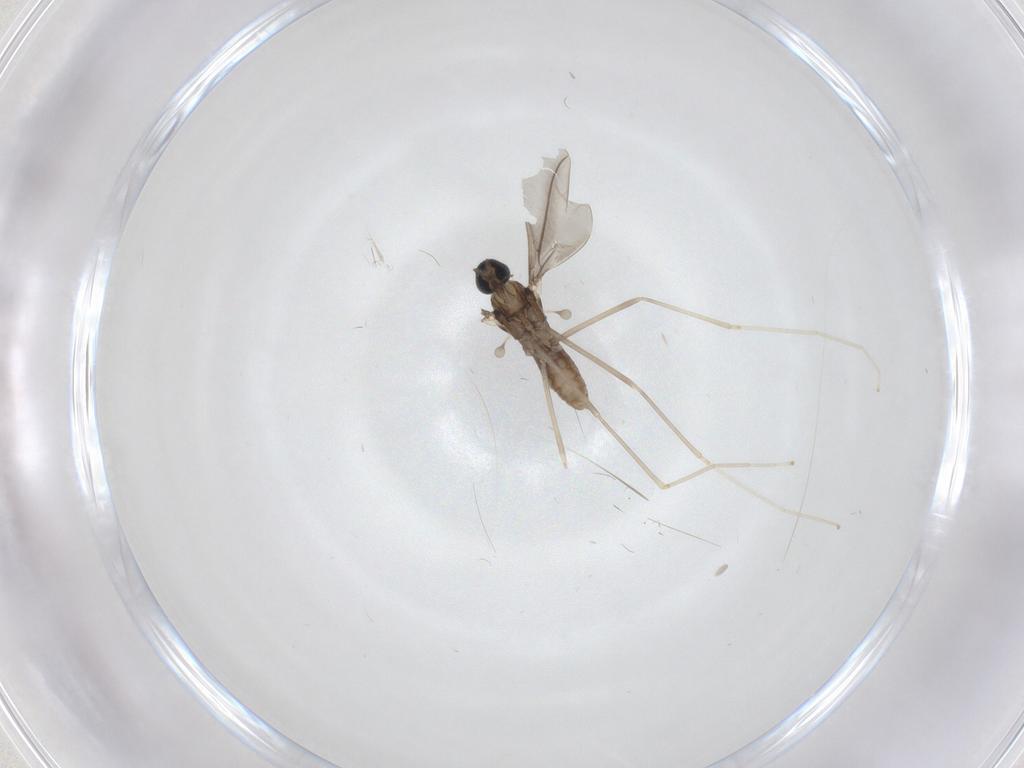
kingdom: Animalia
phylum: Arthropoda
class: Insecta
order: Diptera
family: Cecidomyiidae
